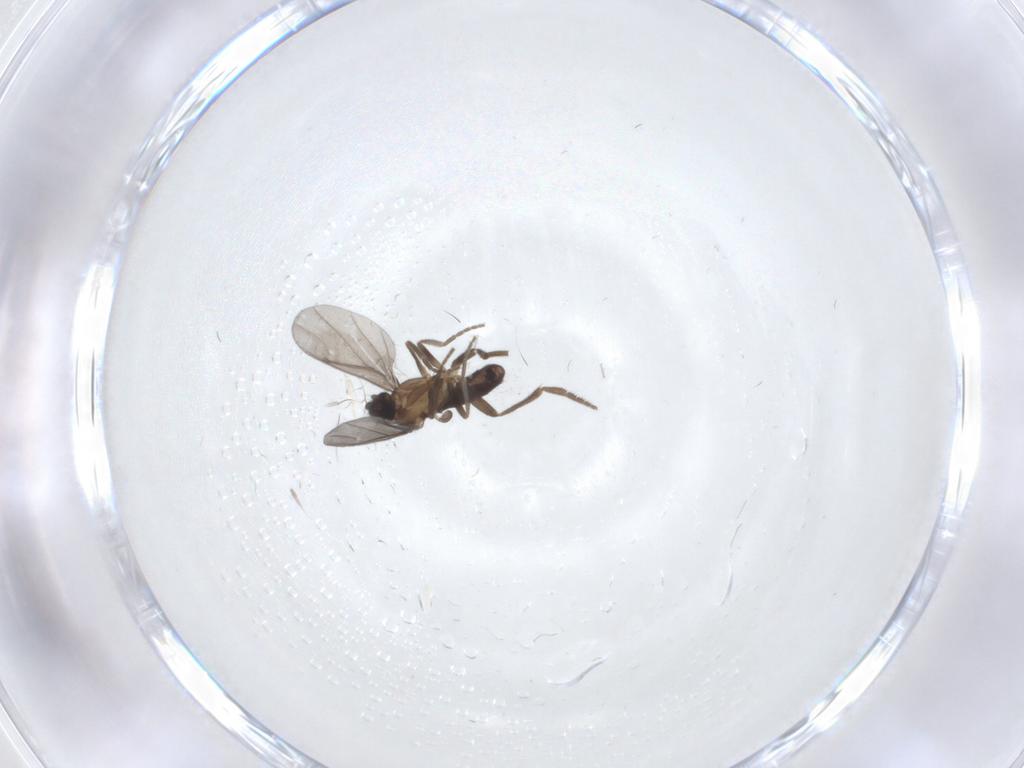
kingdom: Animalia
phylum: Arthropoda
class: Insecta
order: Diptera
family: Phoridae
